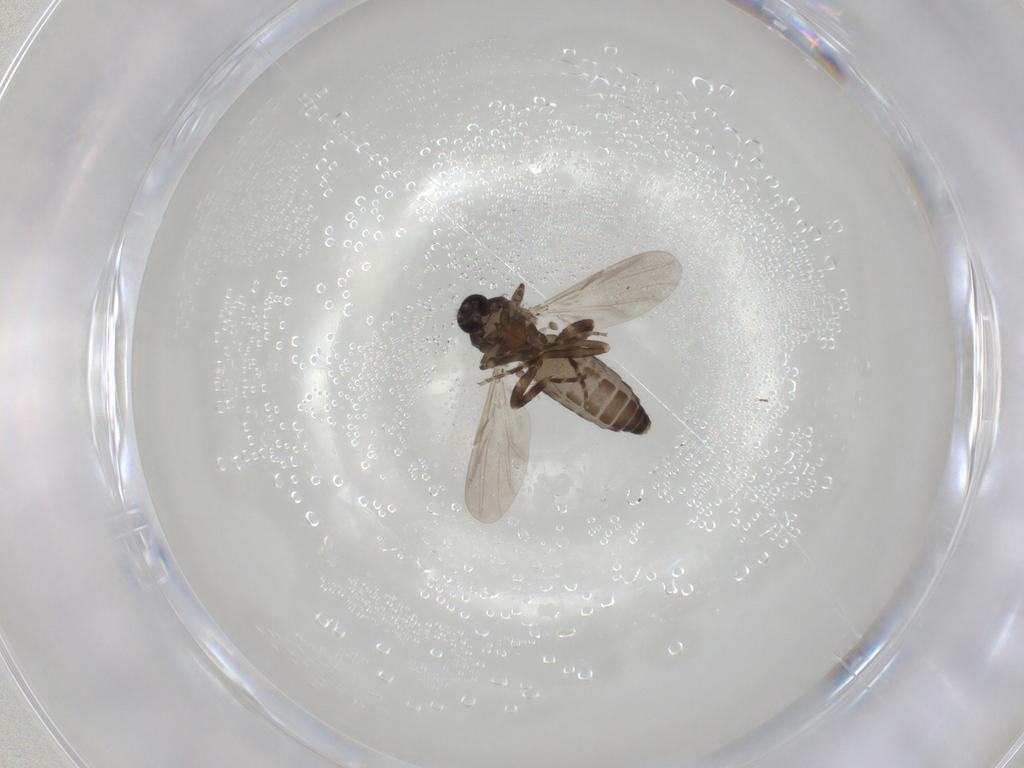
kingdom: Animalia
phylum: Arthropoda
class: Insecta
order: Diptera
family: Ceratopogonidae
